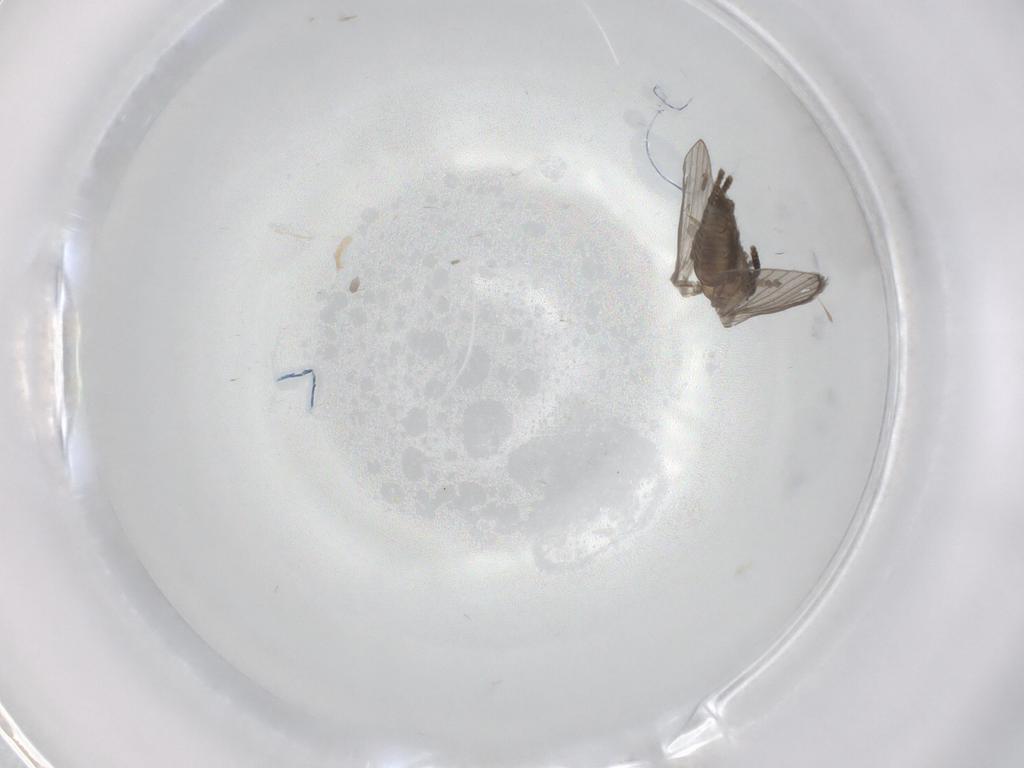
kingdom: Animalia
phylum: Arthropoda
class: Insecta
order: Diptera
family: Psychodidae
